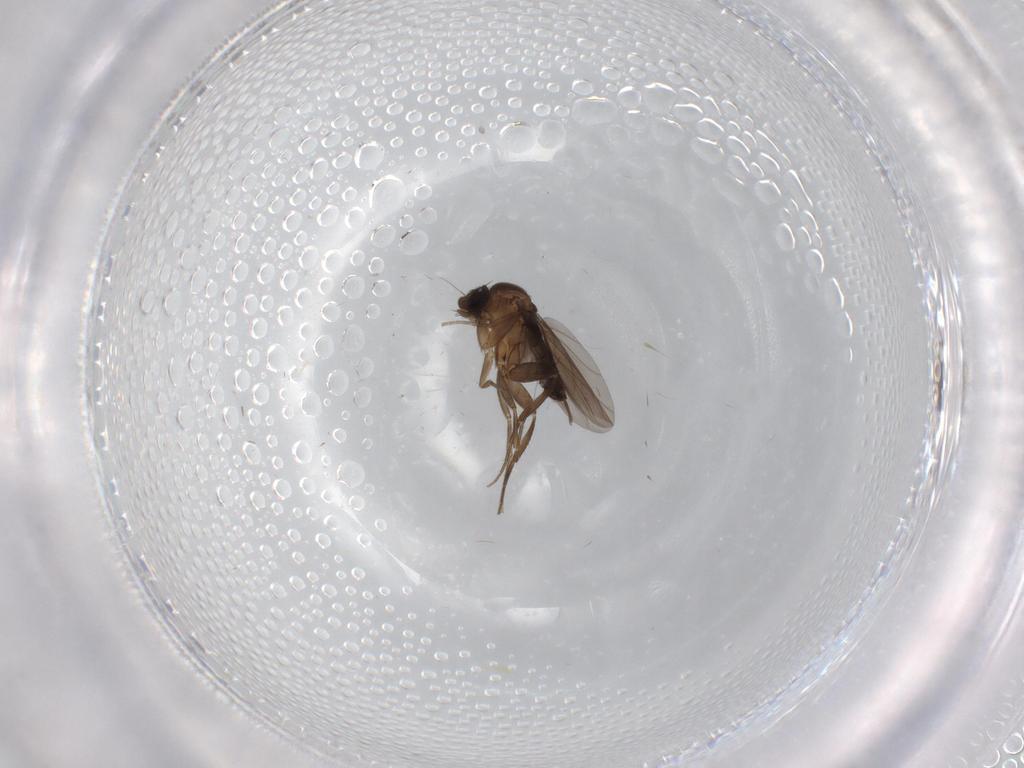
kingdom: Animalia
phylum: Arthropoda
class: Insecta
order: Diptera
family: Phoridae
